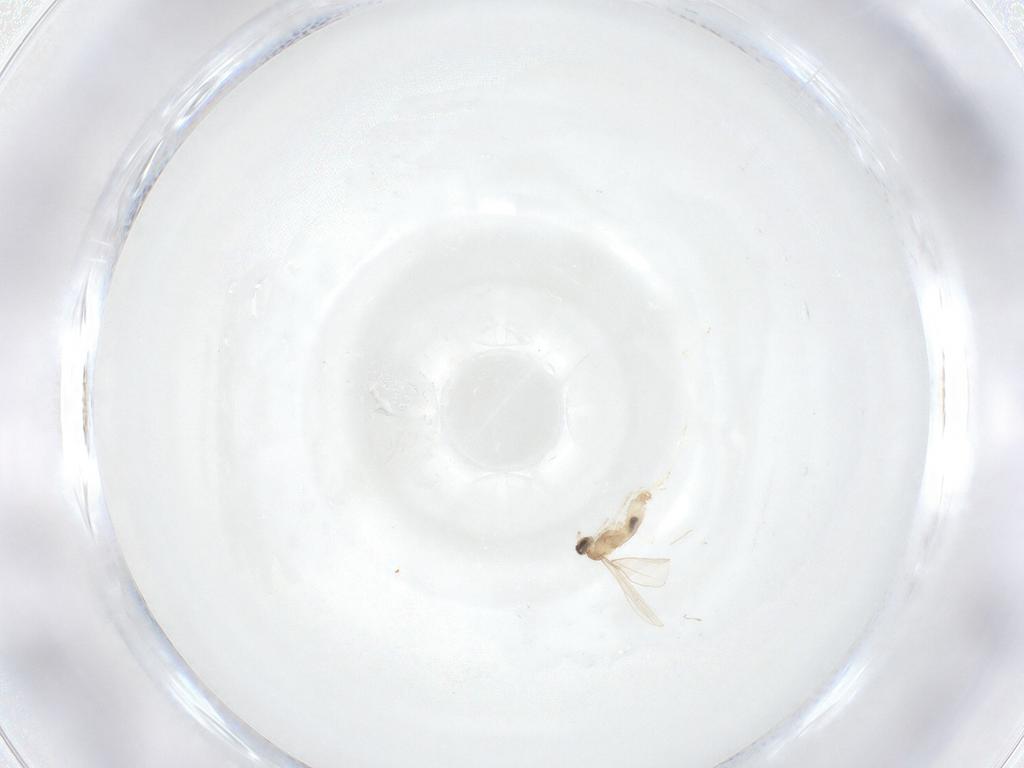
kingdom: Animalia
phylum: Arthropoda
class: Insecta
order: Diptera
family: Cecidomyiidae
